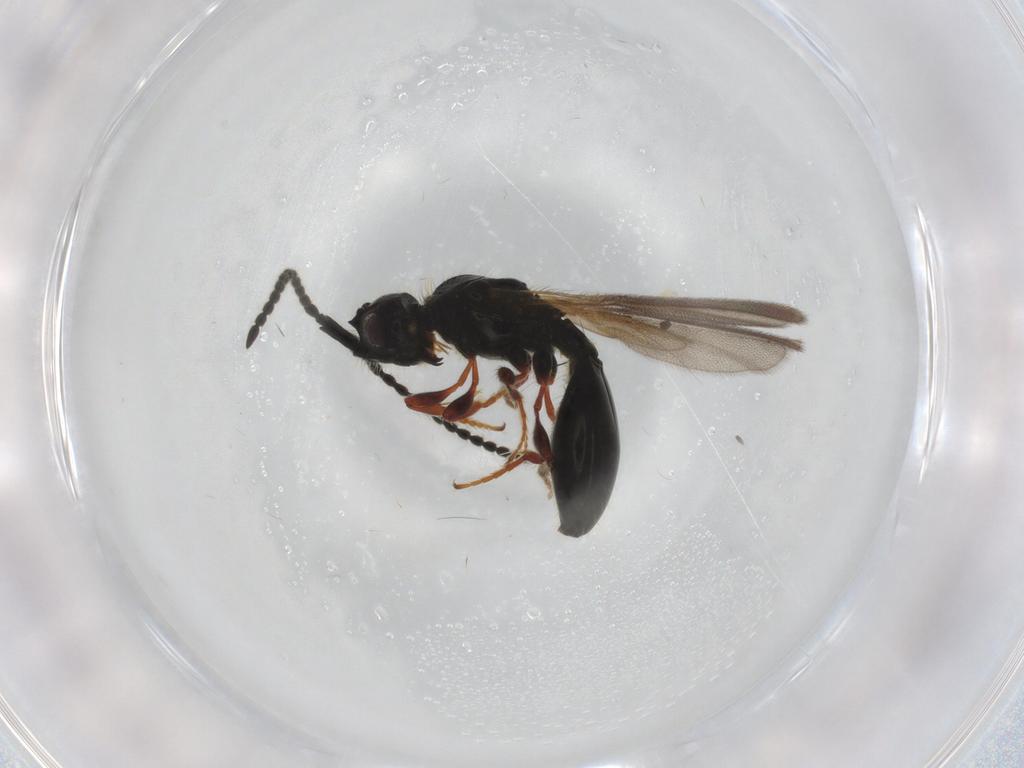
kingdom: Animalia
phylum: Arthropoda
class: Insecta
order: Hymenoptera
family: Diapriidae
